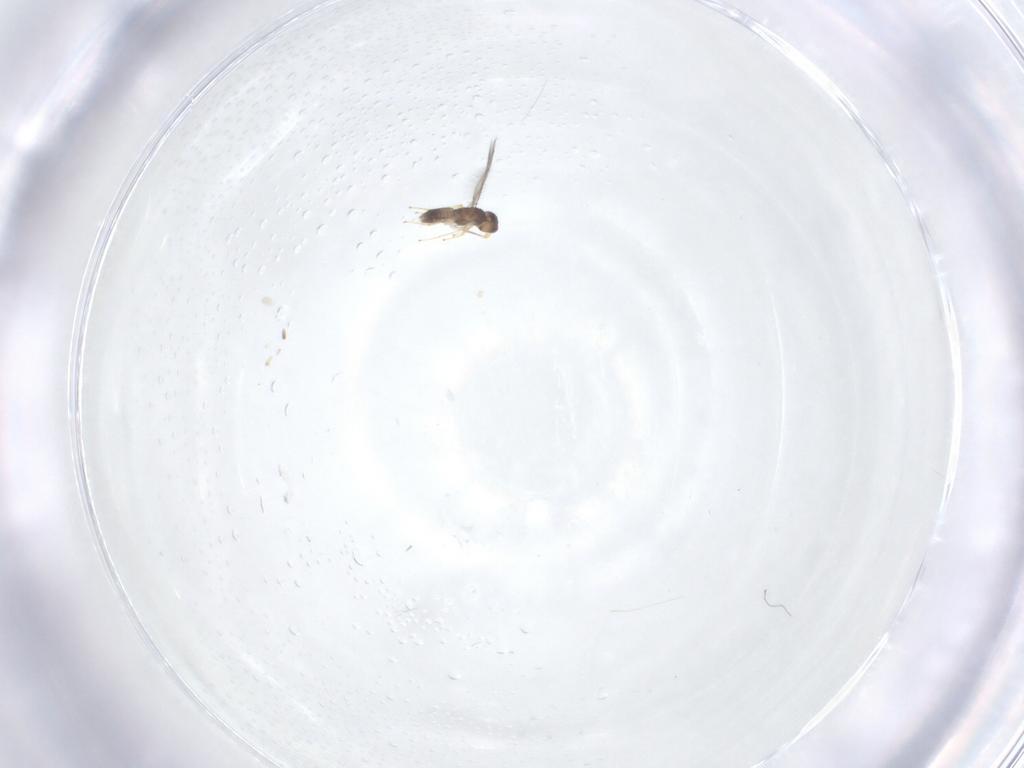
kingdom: Animalia
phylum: Arthropoda
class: Insecta
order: Hymenoptera
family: Mymaridae
